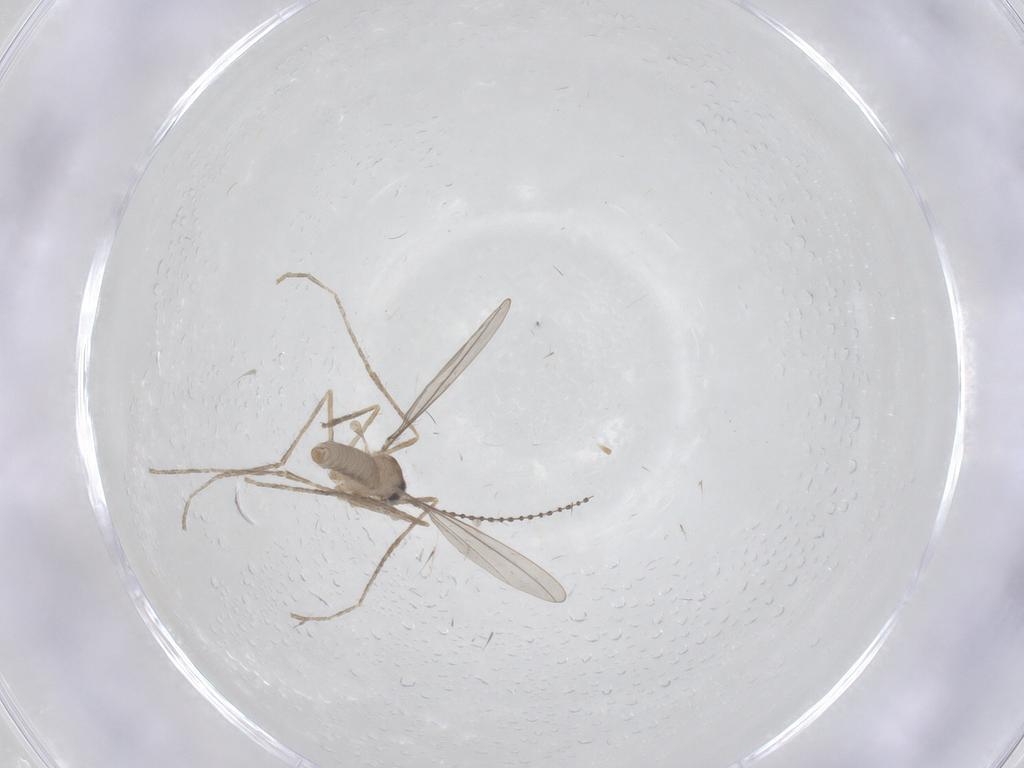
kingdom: Animalia
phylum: Arthropoda
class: Insecta
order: Diptera
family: Cecidomyiidae
